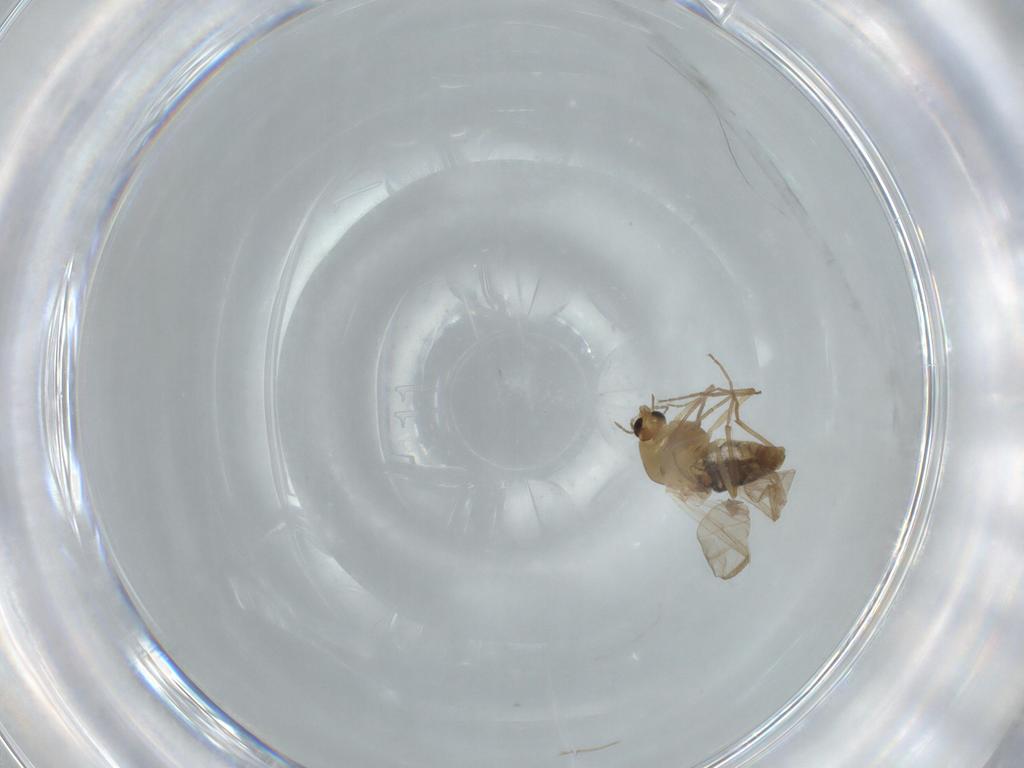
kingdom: Animalia
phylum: Arthropoda
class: Insecta
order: Diptera
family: Chironomidae
